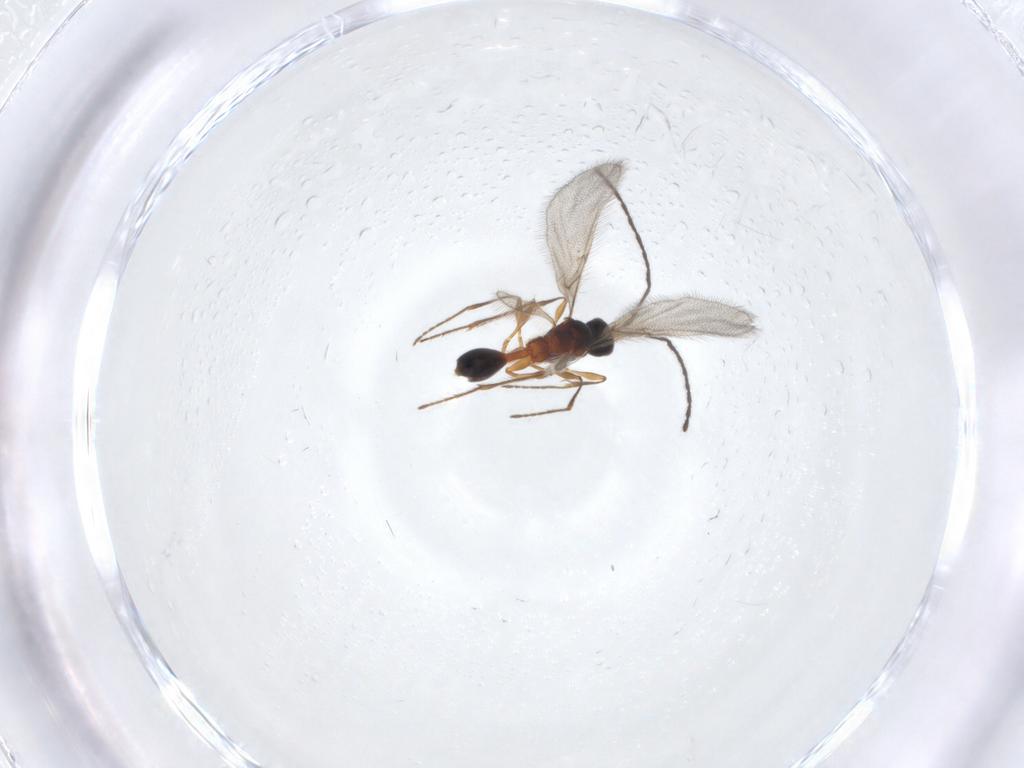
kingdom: Animalia
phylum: Arthropoda
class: Insecta
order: Hymenoptera
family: Diapriidae
